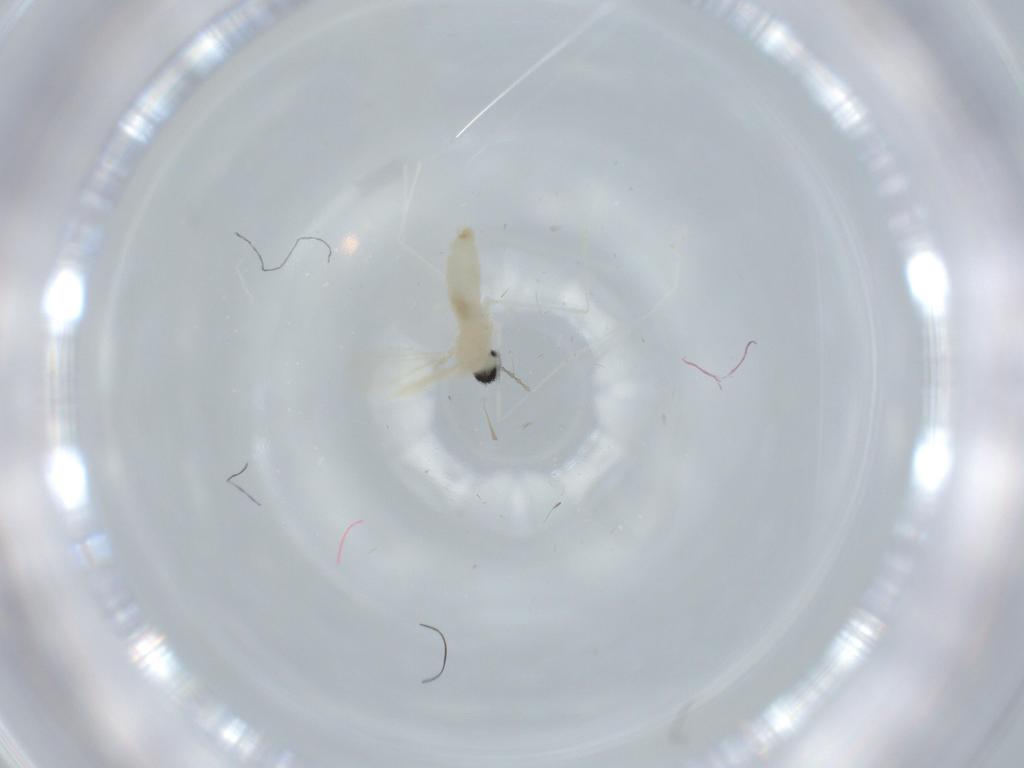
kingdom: Animalia
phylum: Arthropoda
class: Insecta
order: Diptera
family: Cecidomyiidae
